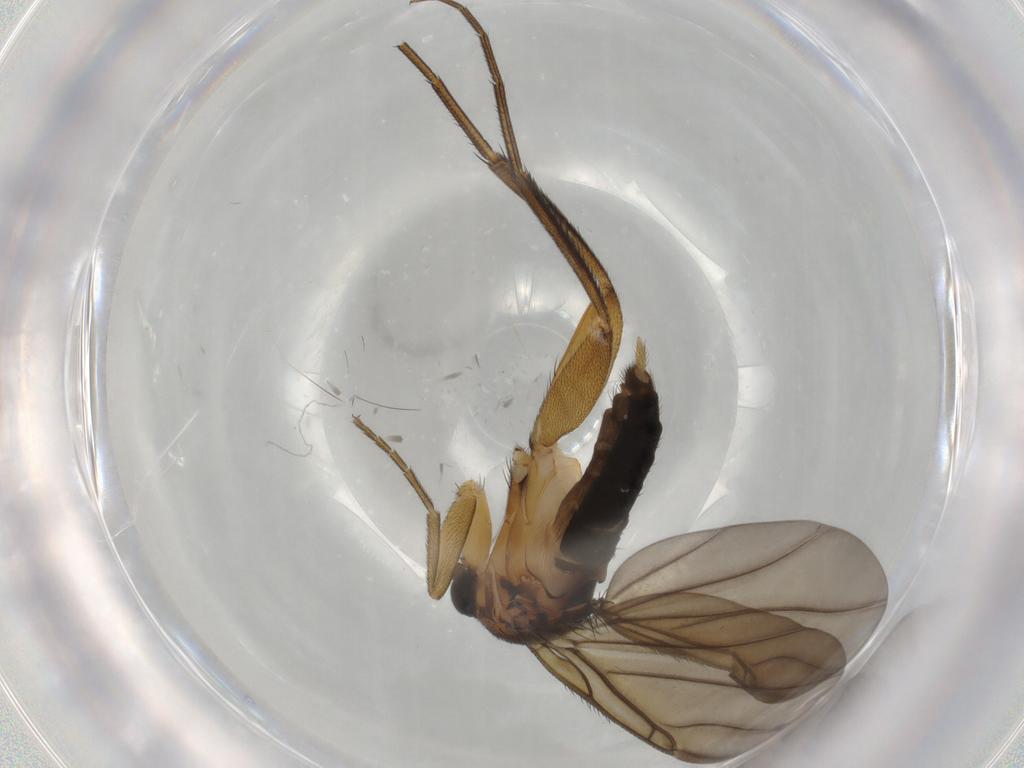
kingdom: Animalia
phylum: Arthropoda
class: Insecta
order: Diptera
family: Phoridae
